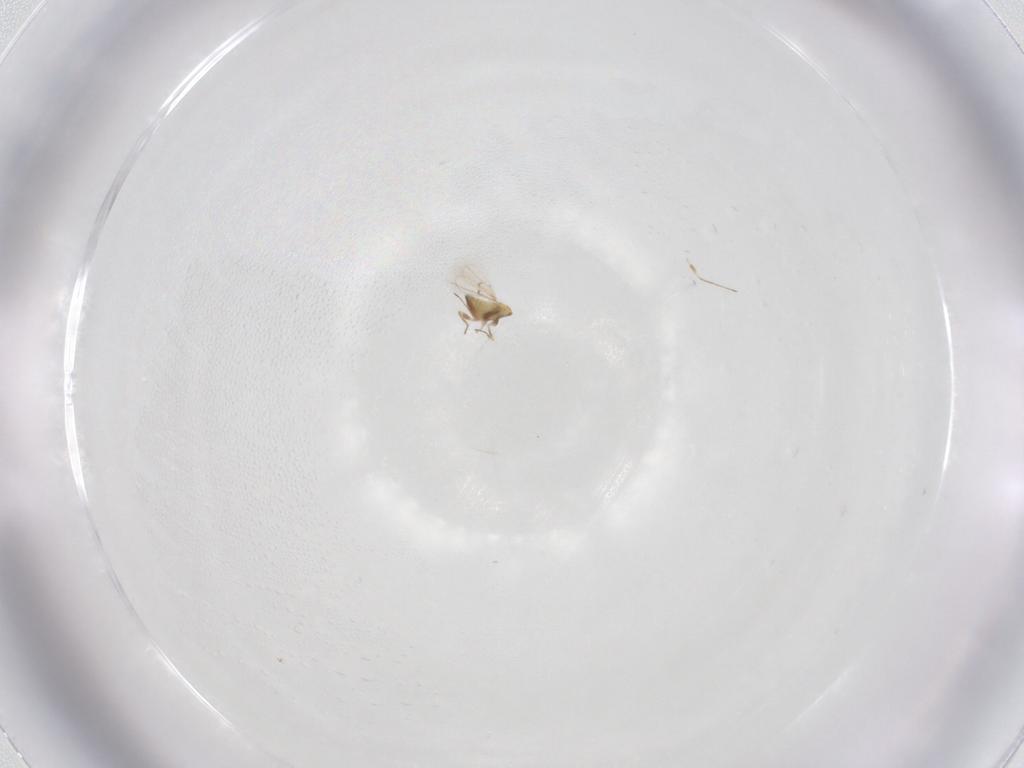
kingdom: Animalia
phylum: Arthropoda
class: Insecta
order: Hymenoptera
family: Trichogrammatidae
